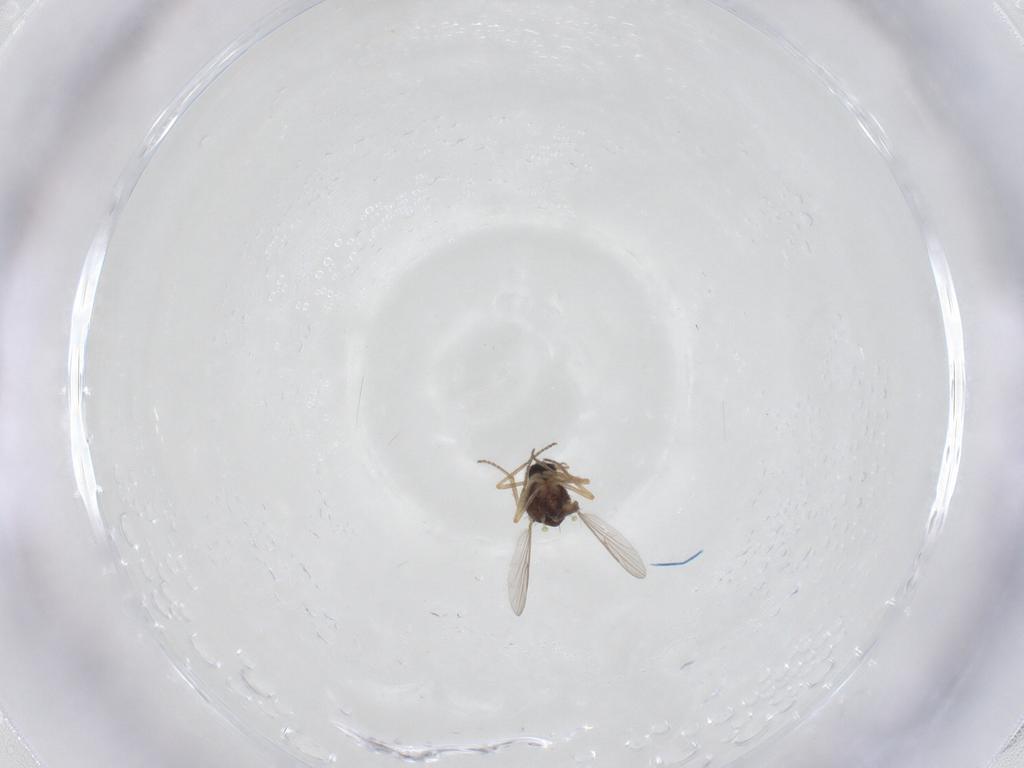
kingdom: Animalia
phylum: Arthropoda
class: Insecta
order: Diptera
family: Ceratopogonidae
